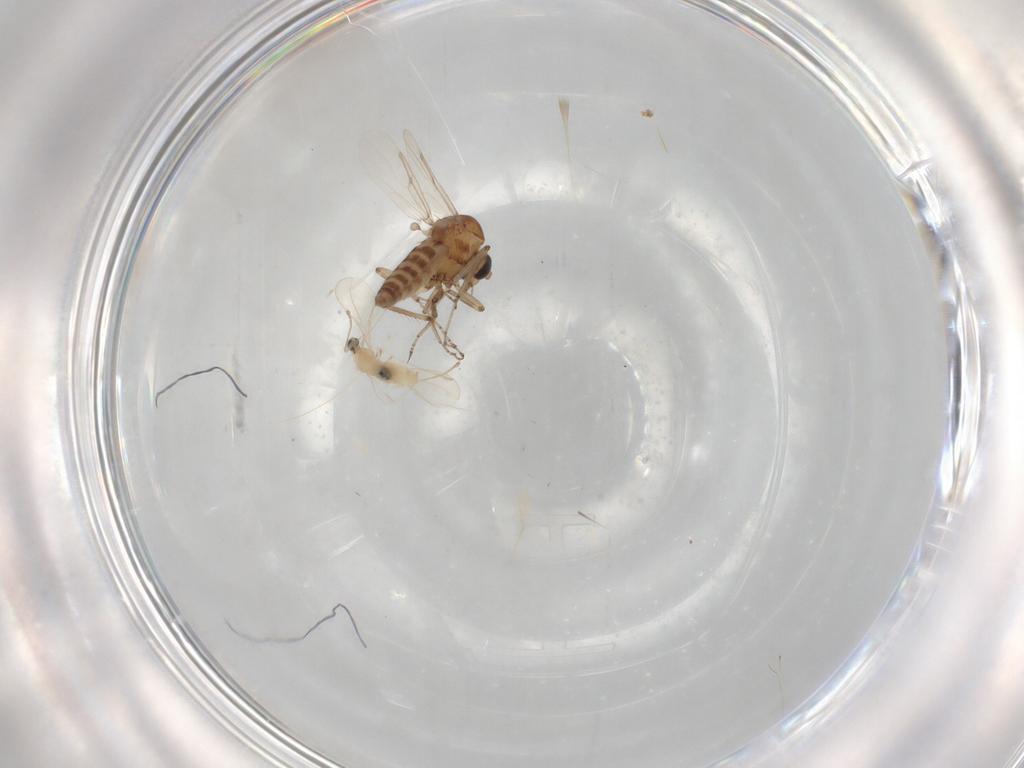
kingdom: Animalia
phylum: Arthropoda
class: Insecta
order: Diptera
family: Ceratopogonidae
